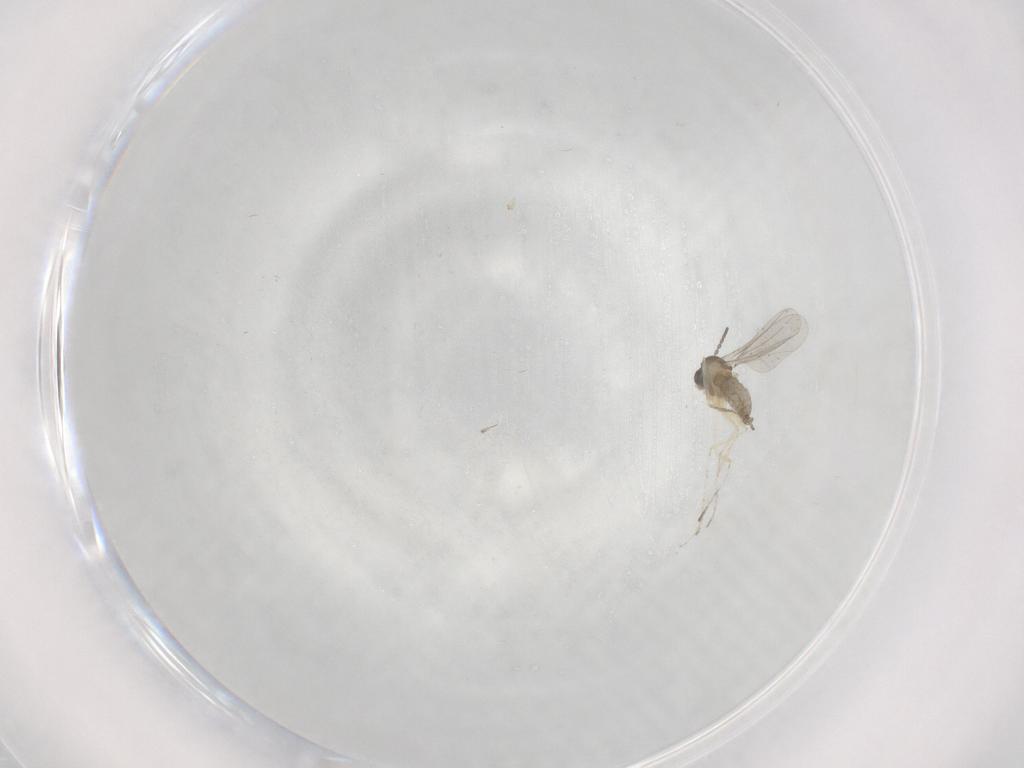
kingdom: Animalia
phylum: Arthropoda
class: Insecta
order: Diptera
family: Cecidomyiidae
